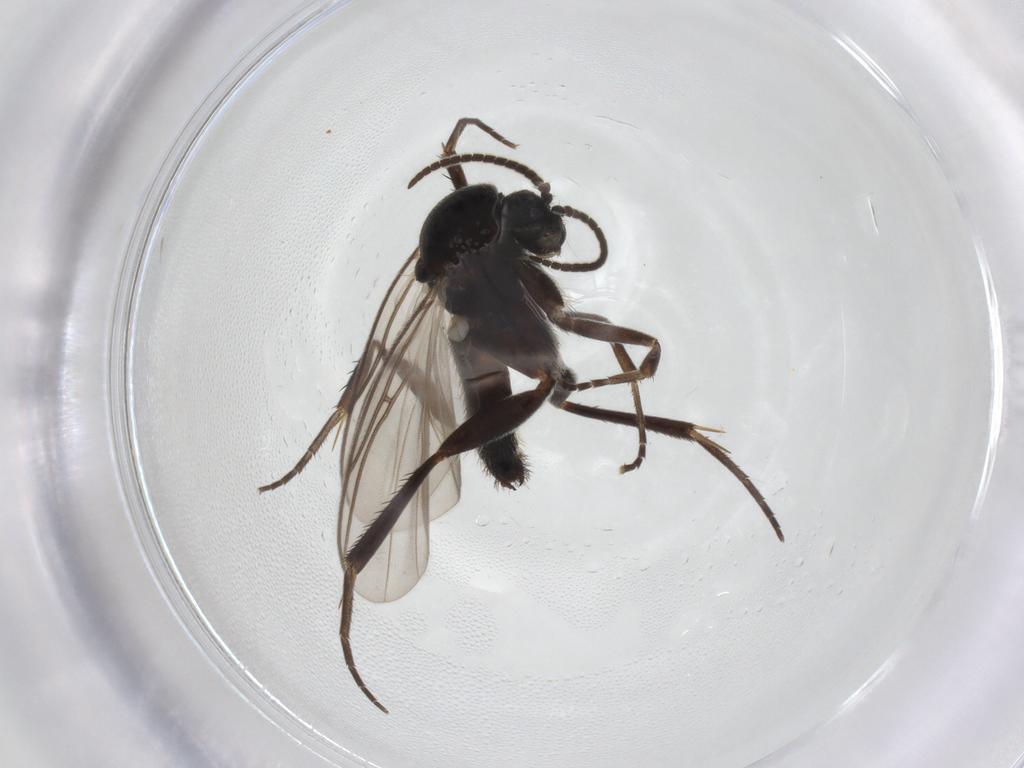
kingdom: Animalia
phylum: Arthropoda
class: Insecta
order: Diptera
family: Mycetophilidae
